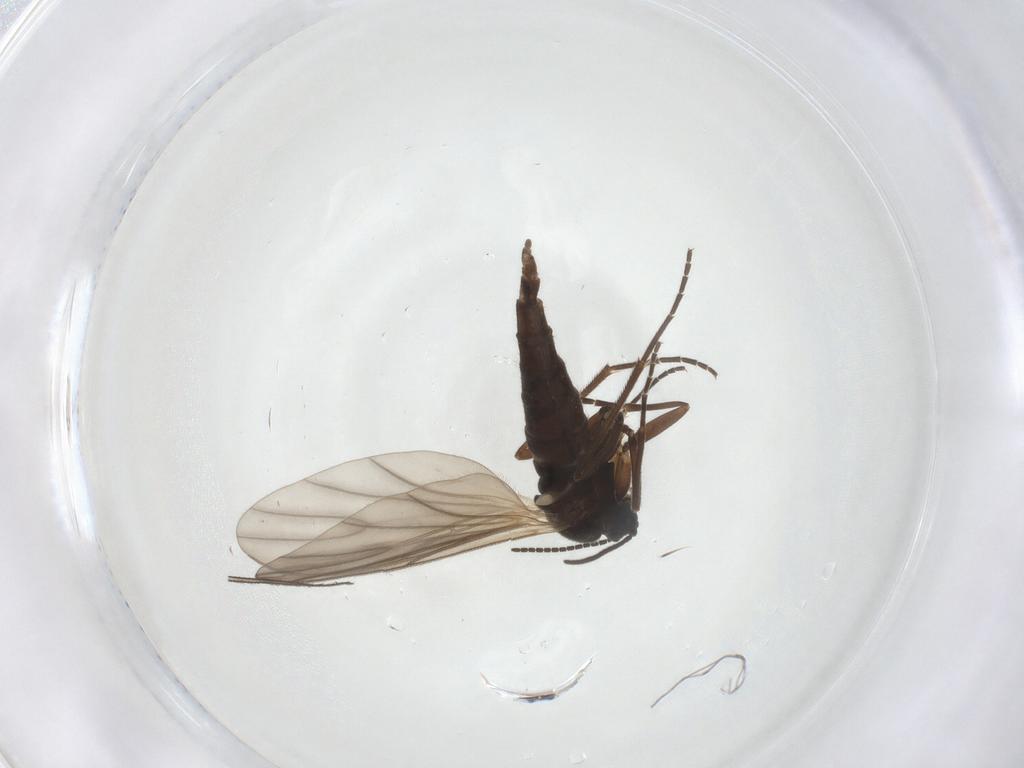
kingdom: Animalia
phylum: Arthropoda
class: Insecta
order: Diptera
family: Sciaridae
